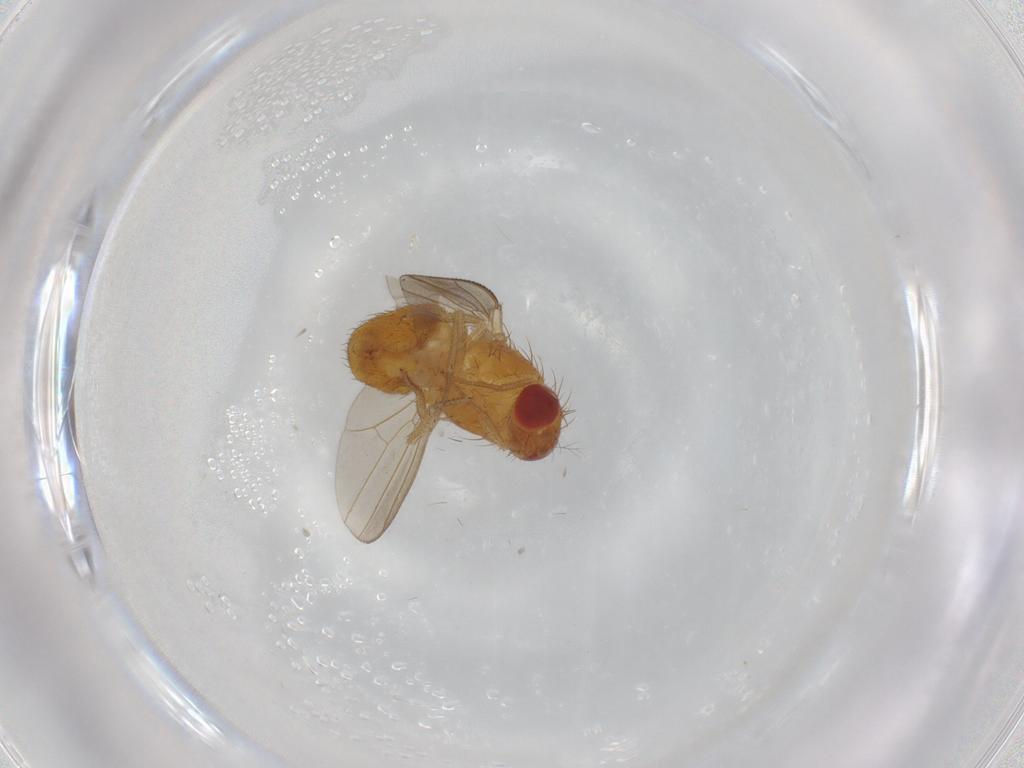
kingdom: Animalia
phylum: Arthropoda
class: Insecta
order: Diptera
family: Drosophilidae
